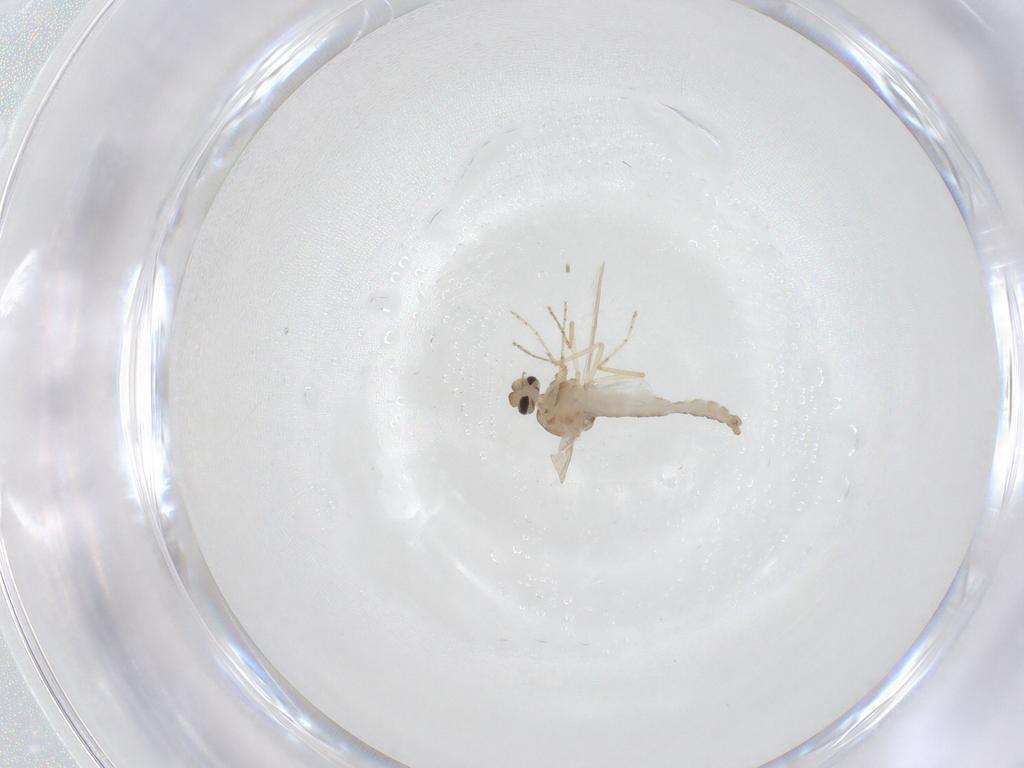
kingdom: Animalia
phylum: Arthropoda
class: Insecta
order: Diptera
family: Ceratopogonidae
